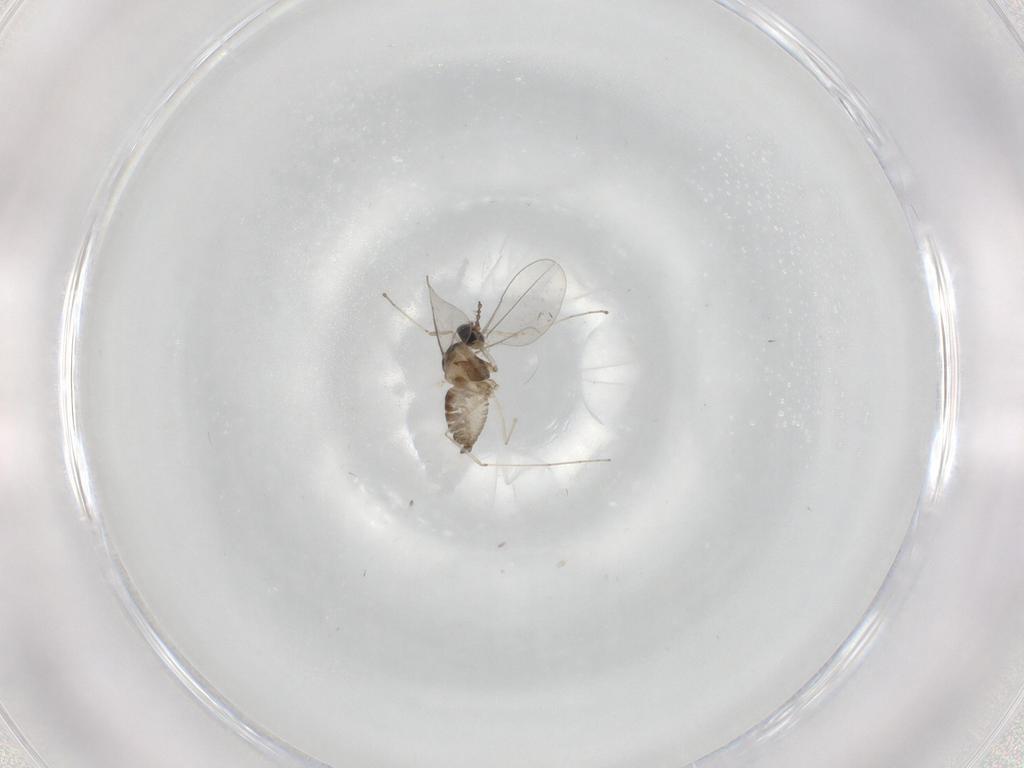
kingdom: Animalia
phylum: Arthropoda
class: Insecta
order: Diptera
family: Cecidomyiidae
